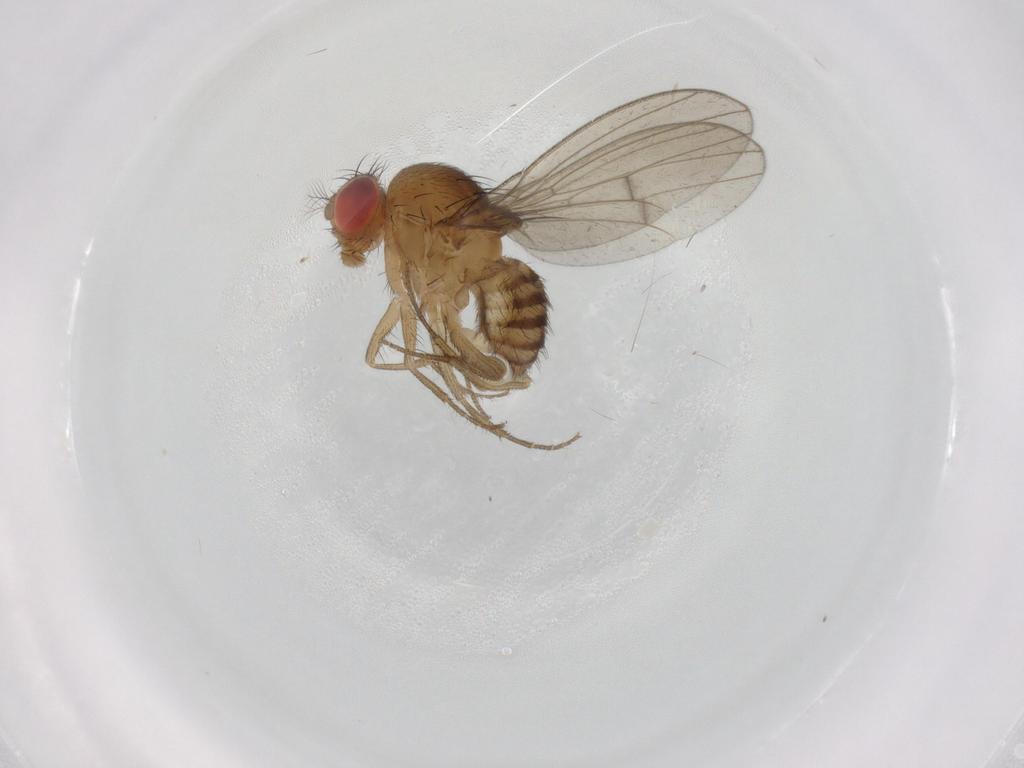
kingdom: Animalia
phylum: Arthropoda
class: Insecta
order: Diptera
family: Drosophilidae
